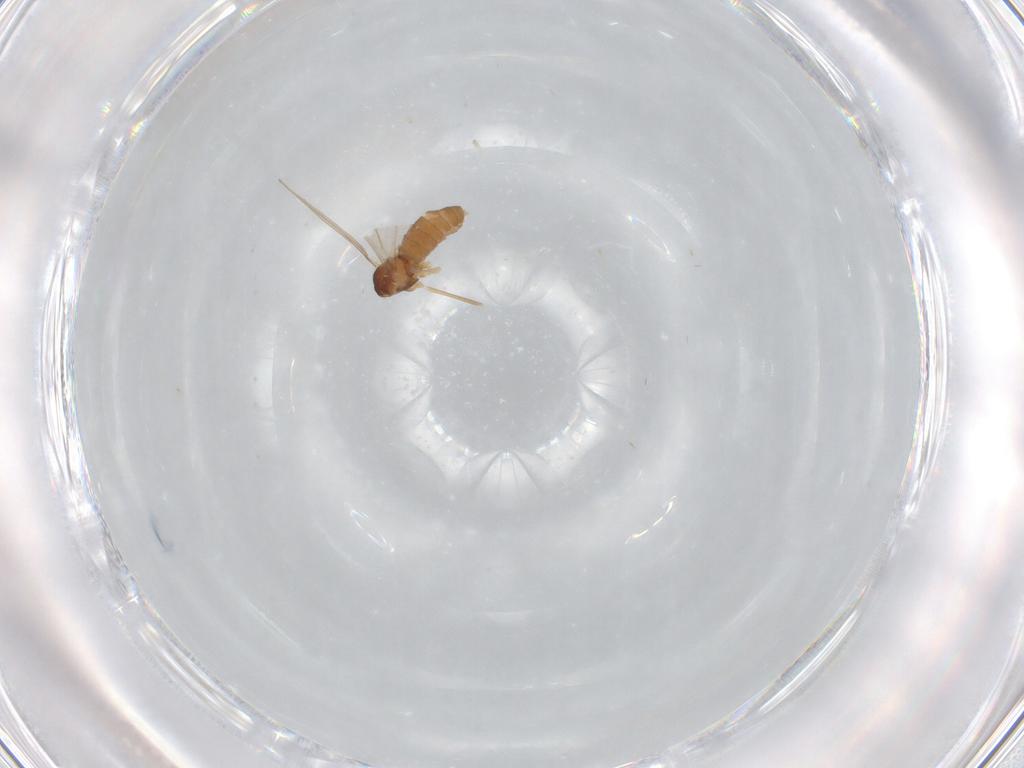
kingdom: Animalia
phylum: Arthropoda
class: Insecta
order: Diptera
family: Cecidomyiidae
